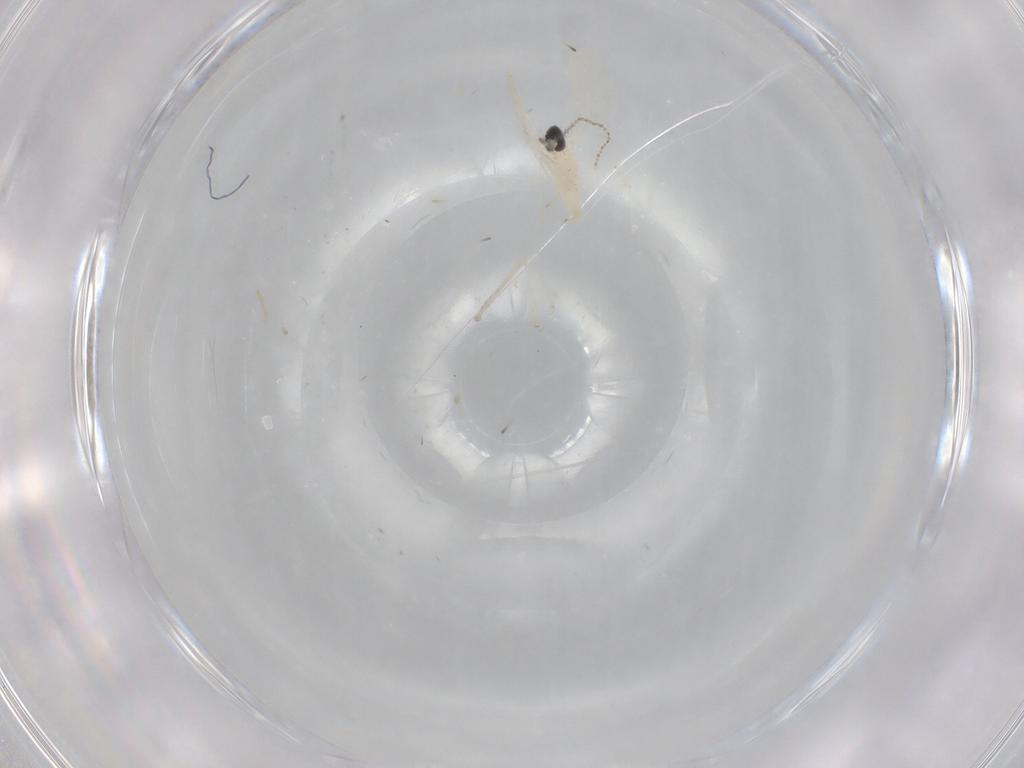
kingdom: Animalia
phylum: Arthropoda
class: Insecta
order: Diptera
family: Cecidomyiidae
